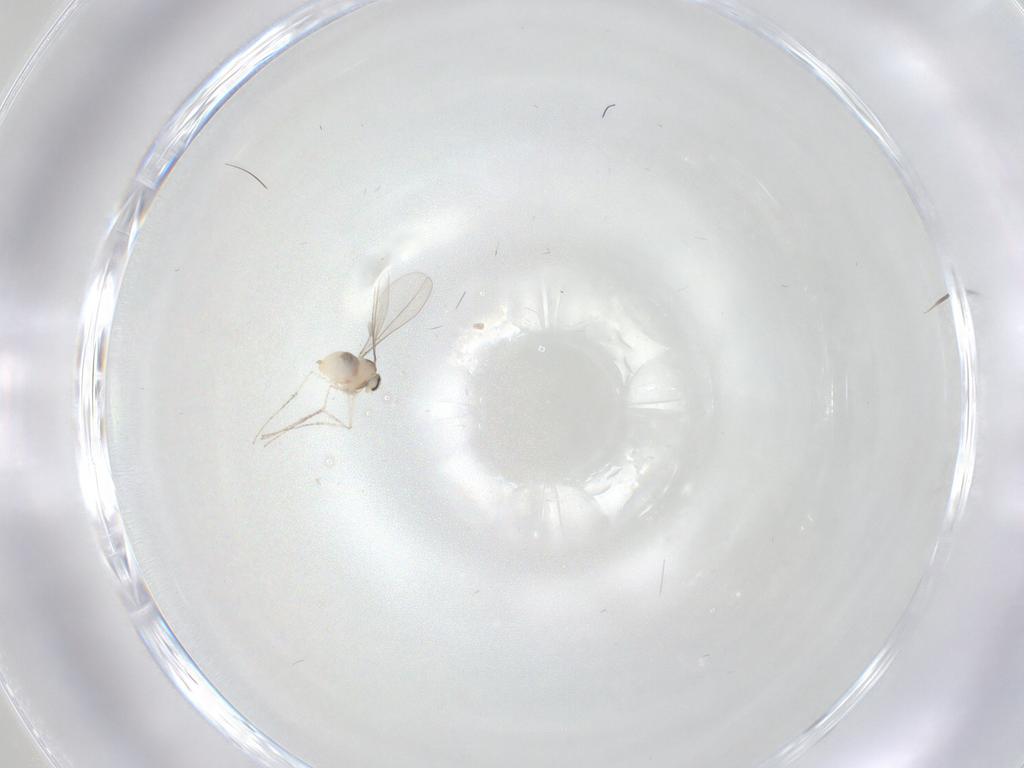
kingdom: Animalia
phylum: Arthropoda
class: Insecta
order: Diptera
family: Cecidomyiidae
